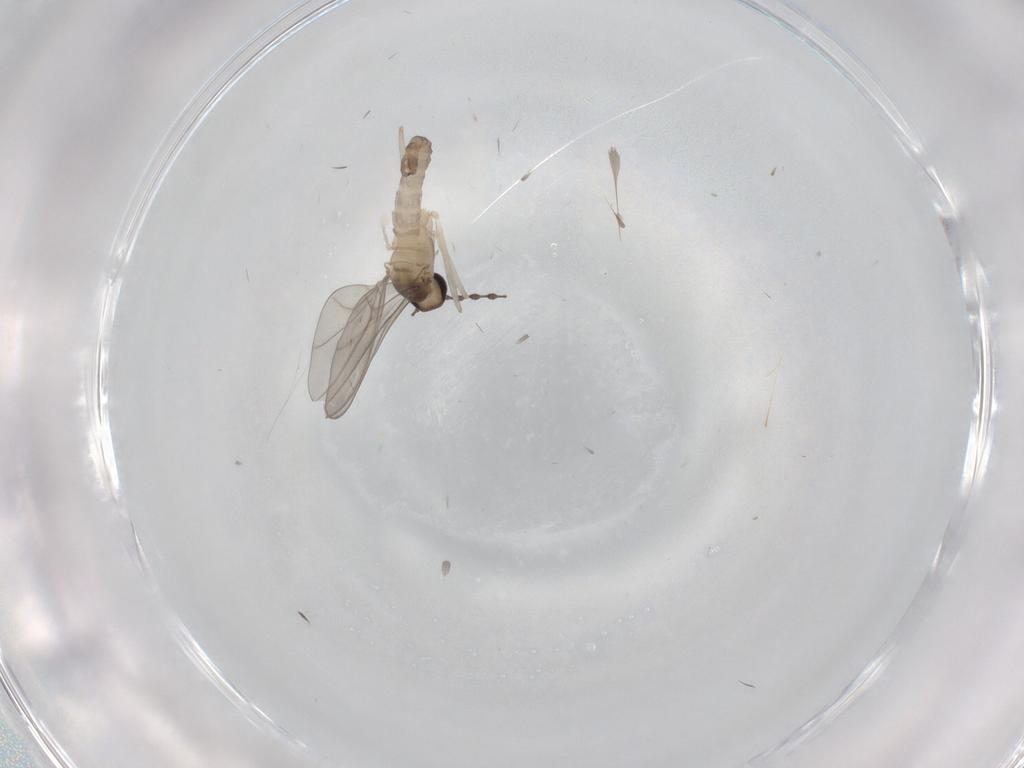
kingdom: Animalia
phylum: Arthropoda
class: Insecta
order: Diptera
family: Cecidomyiidae
